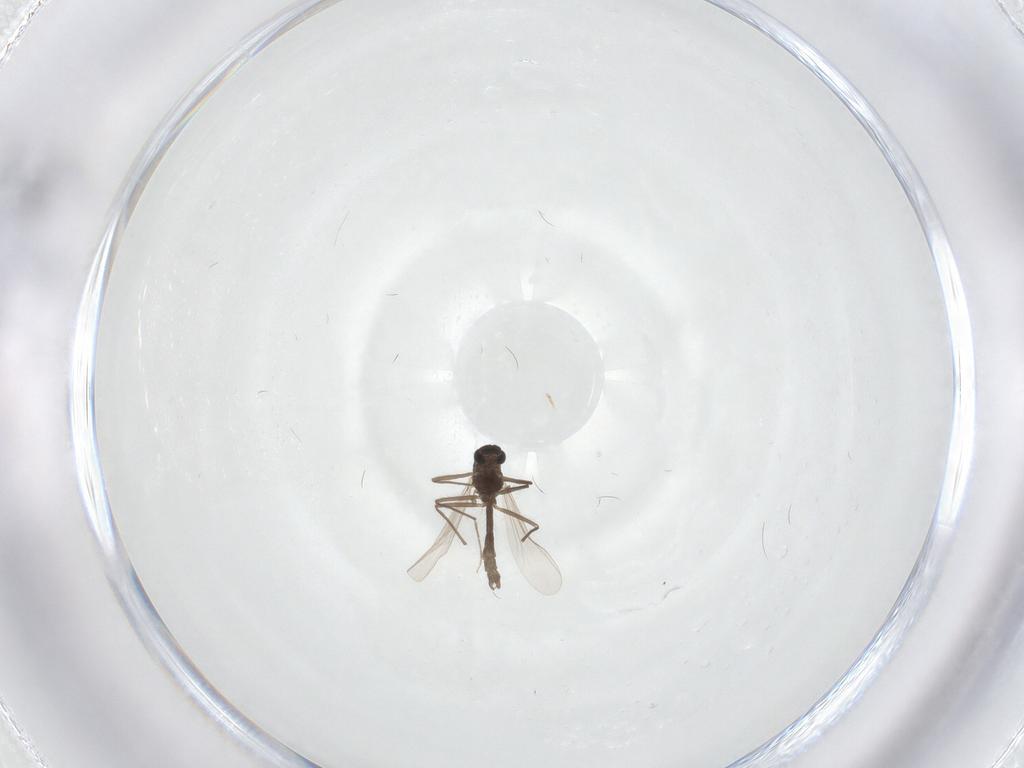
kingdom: Animalia
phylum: Arthropoda
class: Insecta
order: Diptera
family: Chironomidae
